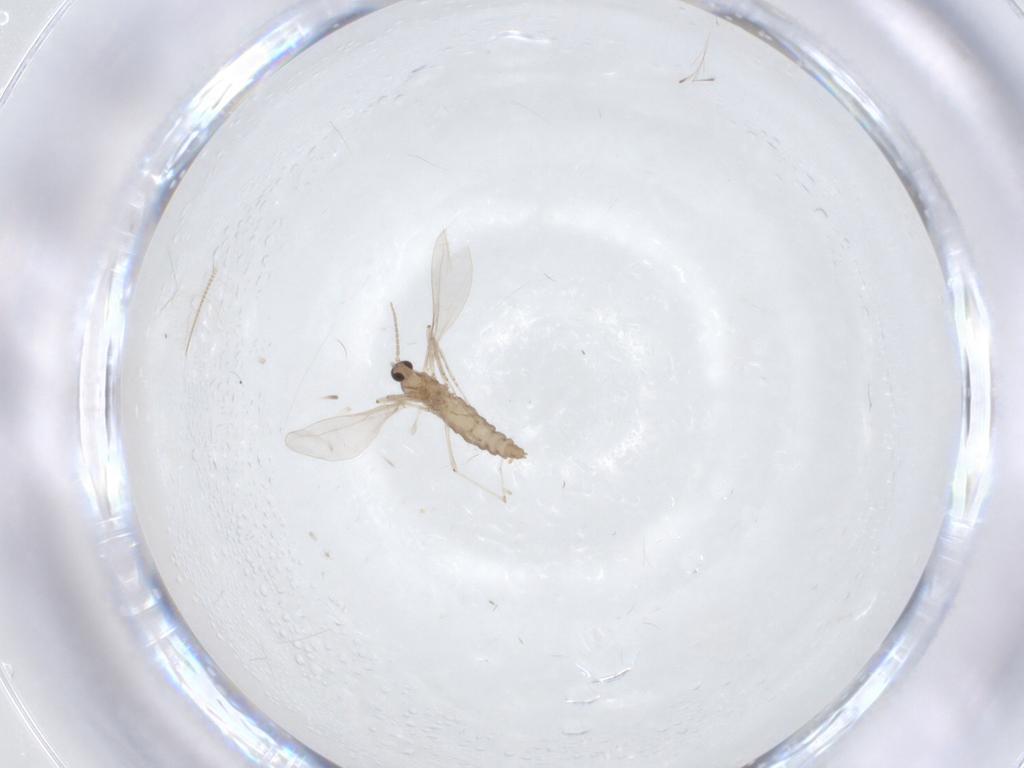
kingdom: Animalia
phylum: Arthropoda
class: Insecta
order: Diptera
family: Cecidomyiidae
